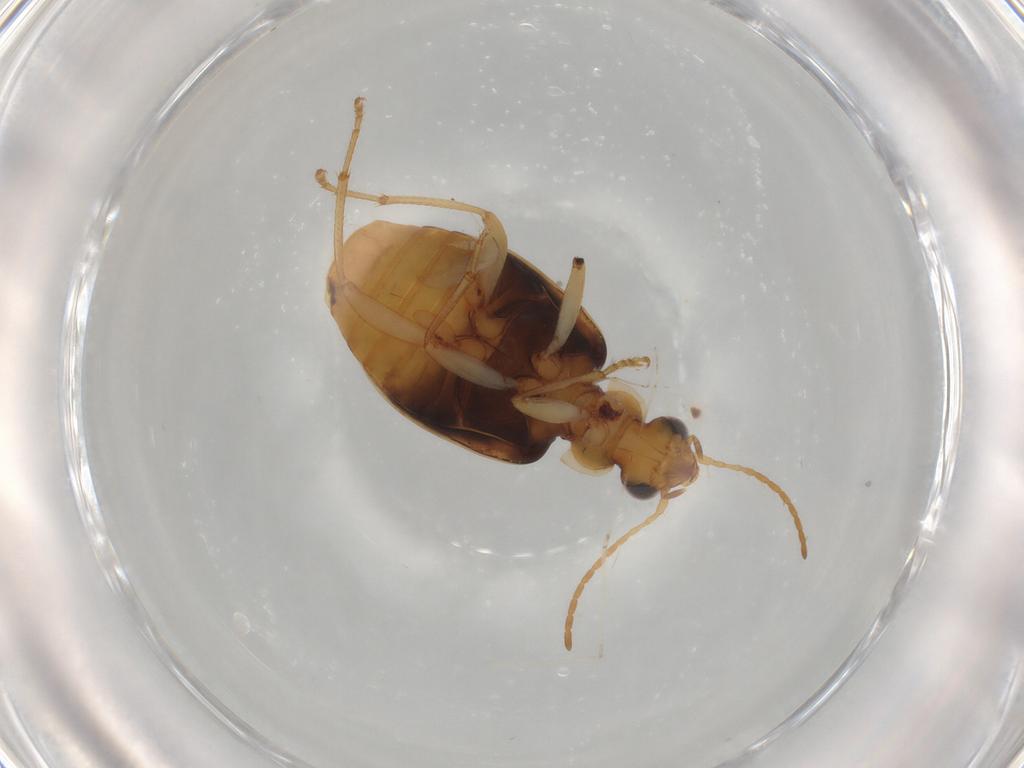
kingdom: Animalia
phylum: Arthropoda
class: Insecta
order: Coleoptera
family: Carabidae
